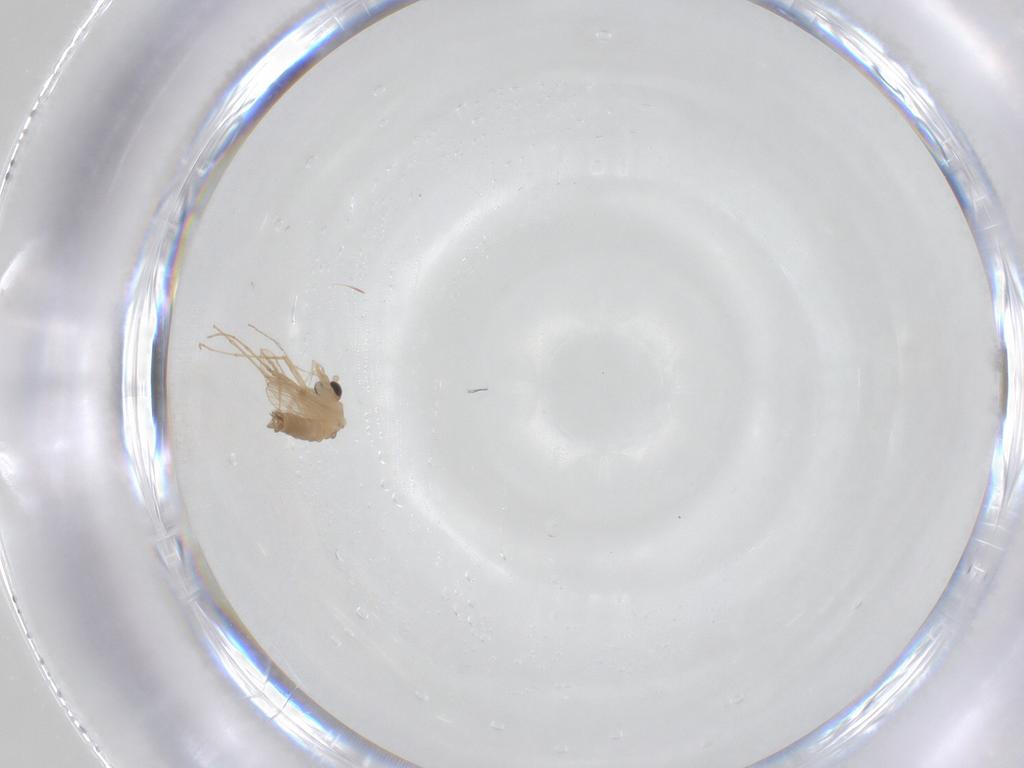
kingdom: Animalia
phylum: Arthropoda
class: Insecta
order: Diptera
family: Psychodidae
